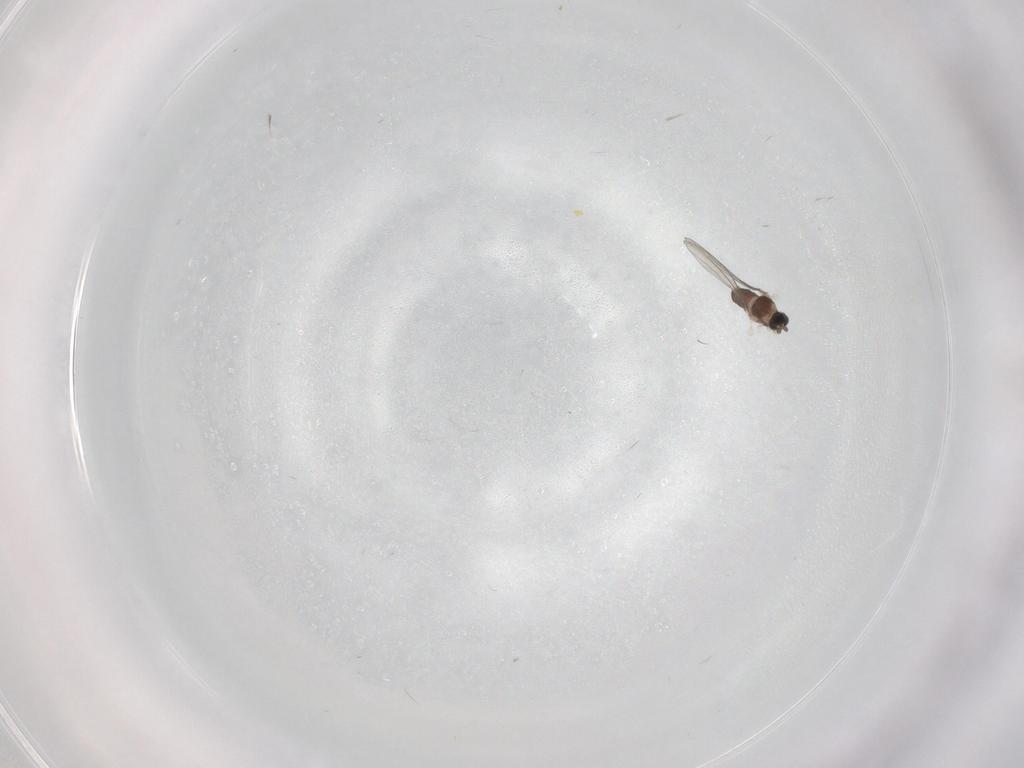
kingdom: Animalia
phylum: Arthropoda
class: Insecta
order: Diptera
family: Cecidomyiidae
